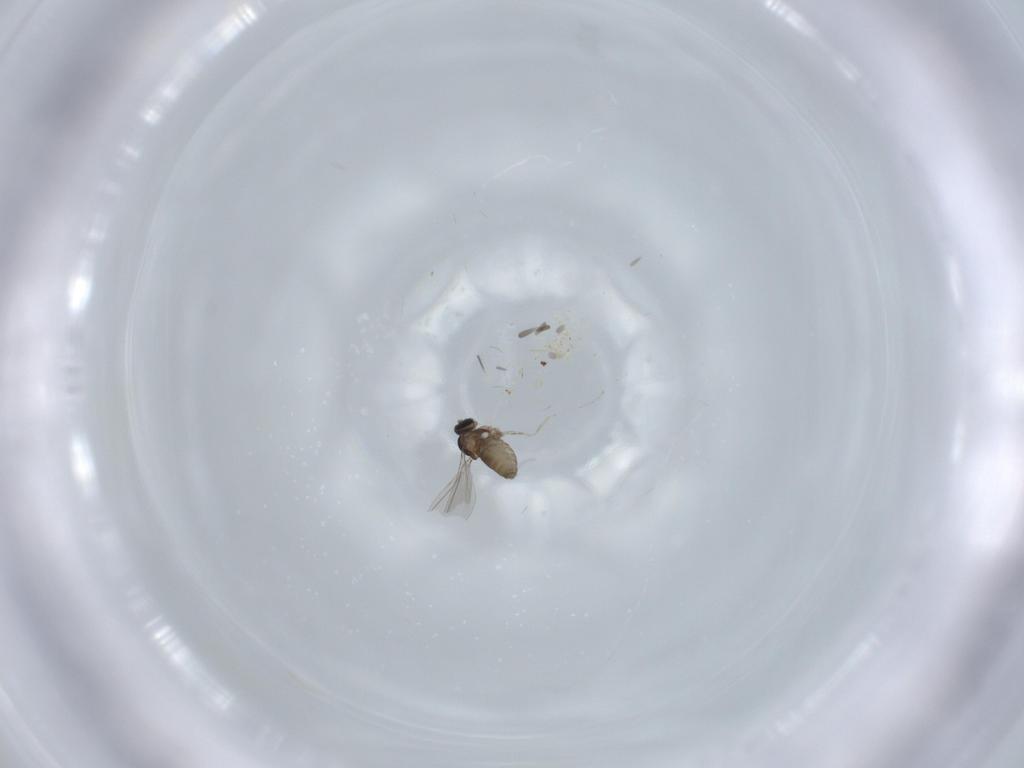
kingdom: Animalia
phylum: Arthropoda
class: Insecta
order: Diptera
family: Cecidomyiidae
